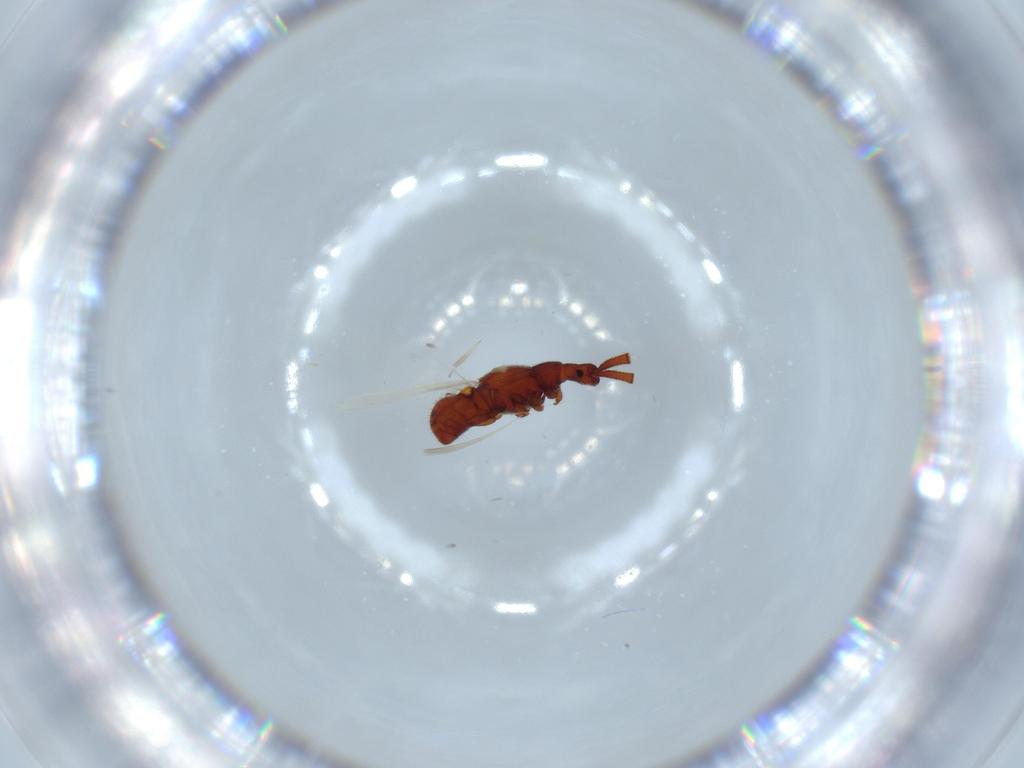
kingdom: Animalia
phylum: Arthropoda
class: Insecta
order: Coleoptera
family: Staphylinidae
